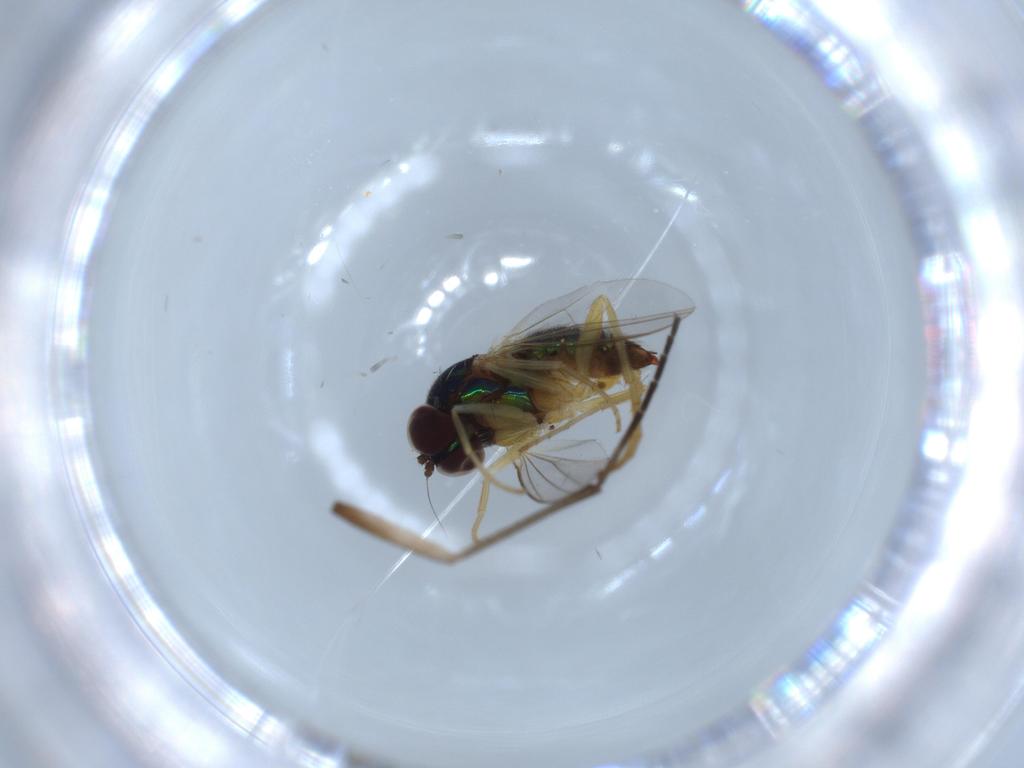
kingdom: Animalia
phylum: Arthropoda
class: Insecta
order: Diptera
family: Dolichopodidae
